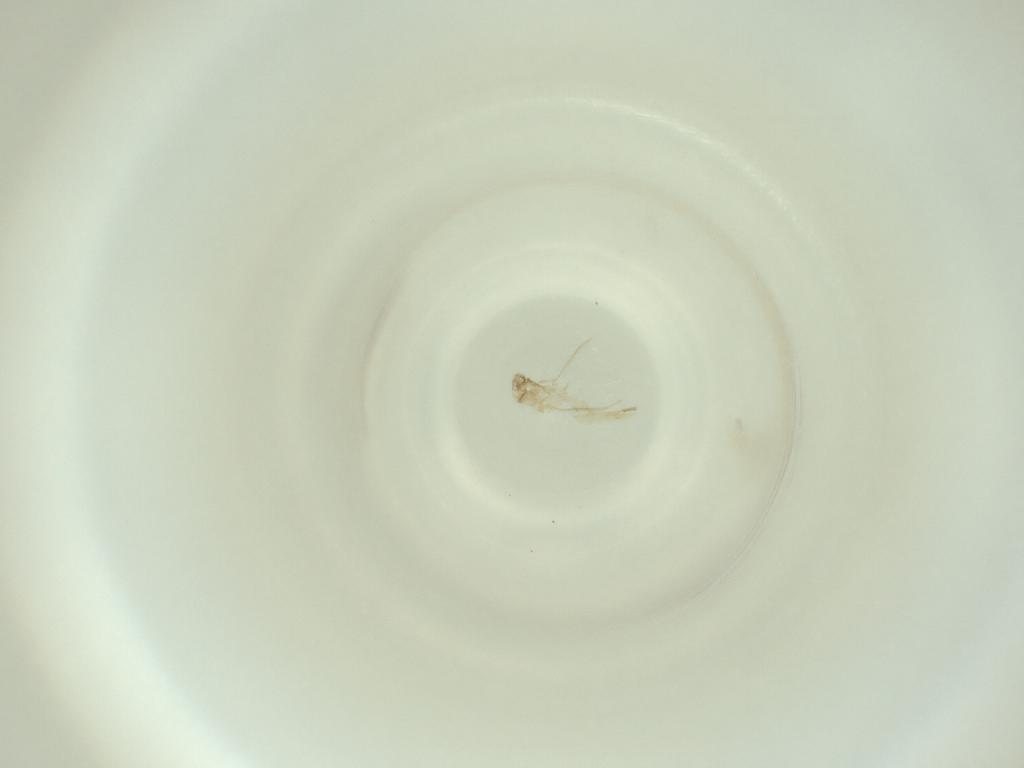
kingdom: Animalia
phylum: Arthropoda
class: Insecta
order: Diptera
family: Cecidomyiidae
